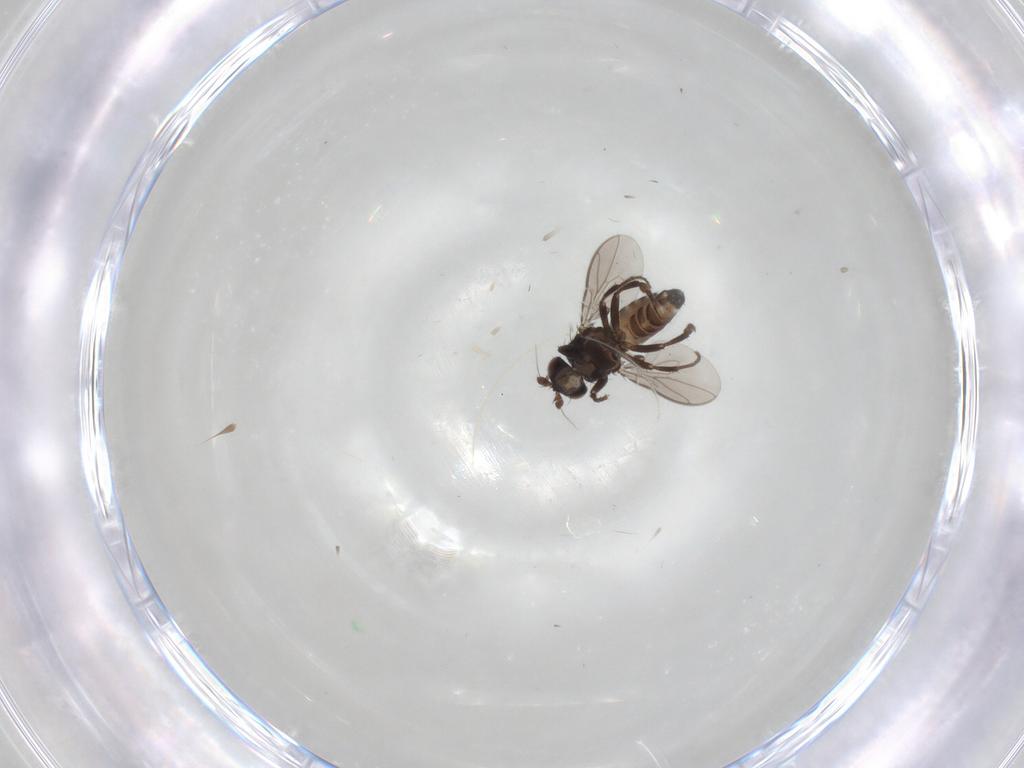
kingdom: Animalia
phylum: Arthropoda
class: Insecta
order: Diptera
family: Sphaeroceridae
